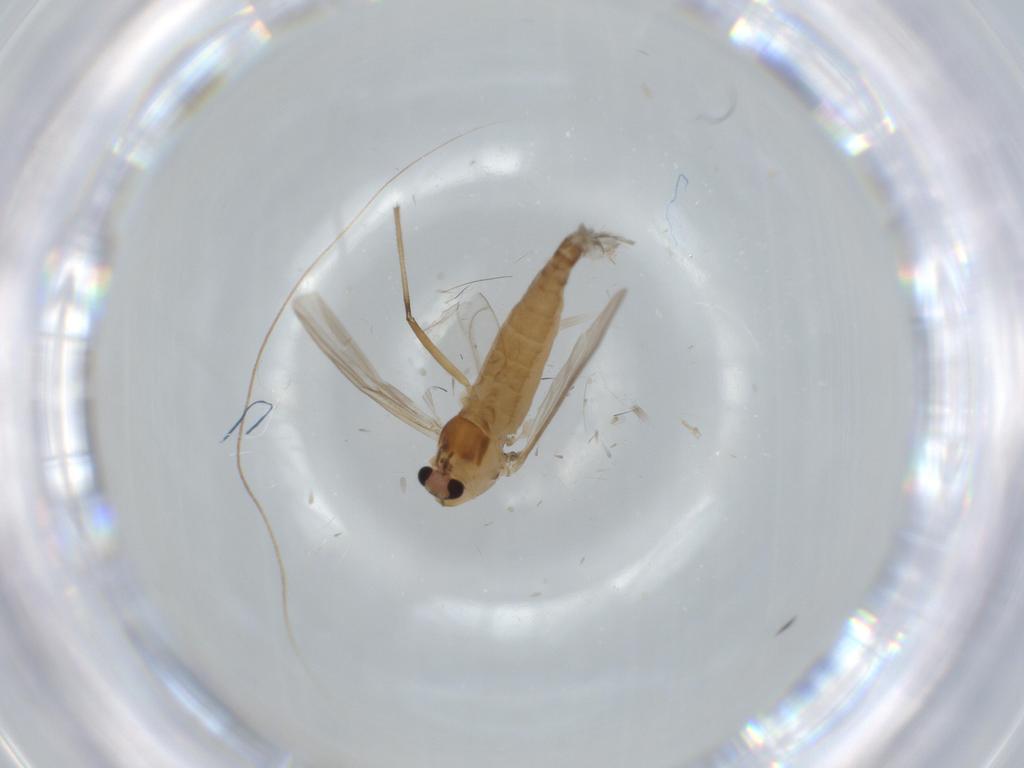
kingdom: Animalia
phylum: Arthropoda
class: Insecta
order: Diptera
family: Chironomidae
